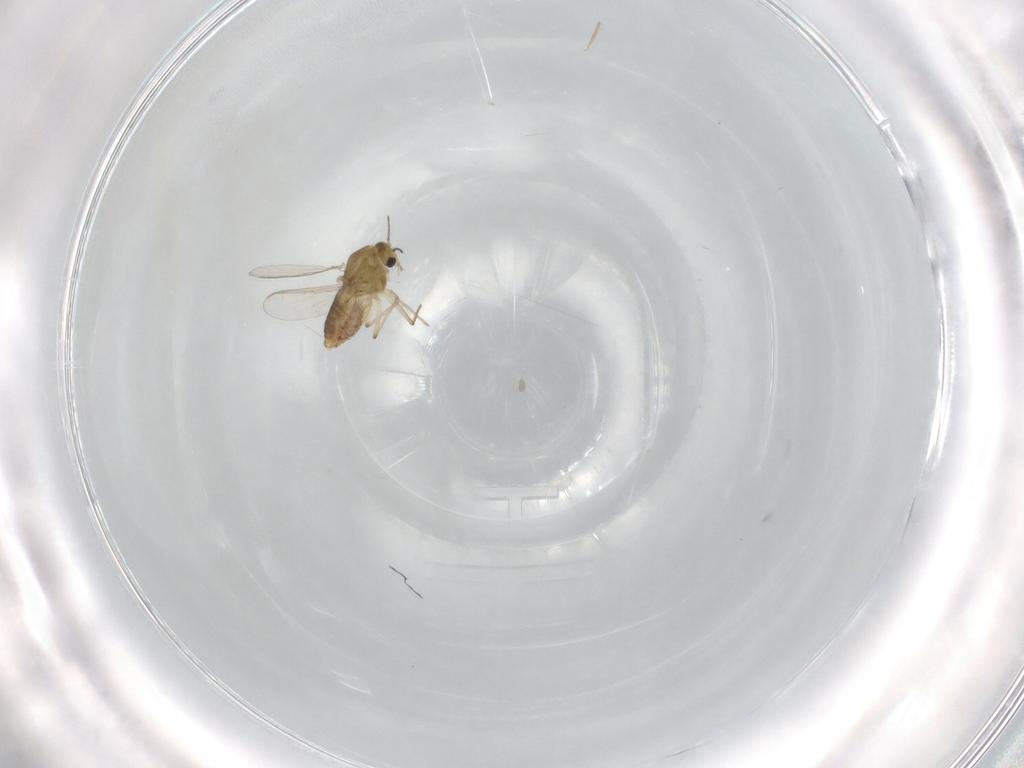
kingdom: Animalia
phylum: Arthropoda
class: Insecta
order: Diptera
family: Chironomidae
